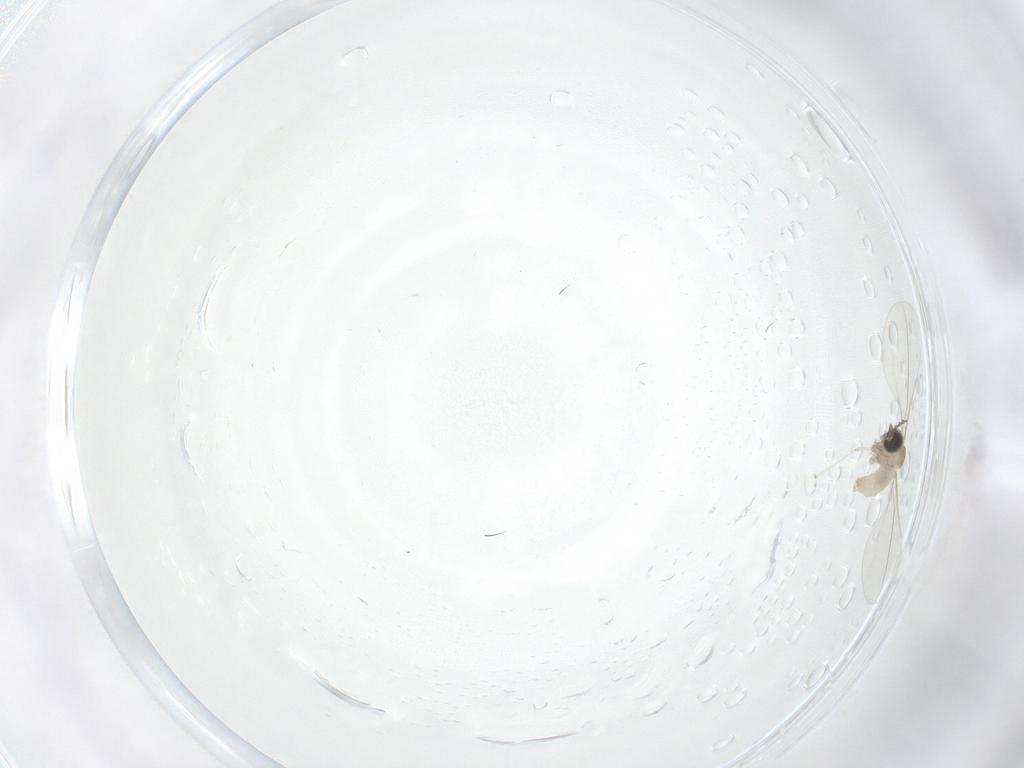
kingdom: Animalia
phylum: Arthropoda
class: Insecta
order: Diptera
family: Cecidomyiidae
